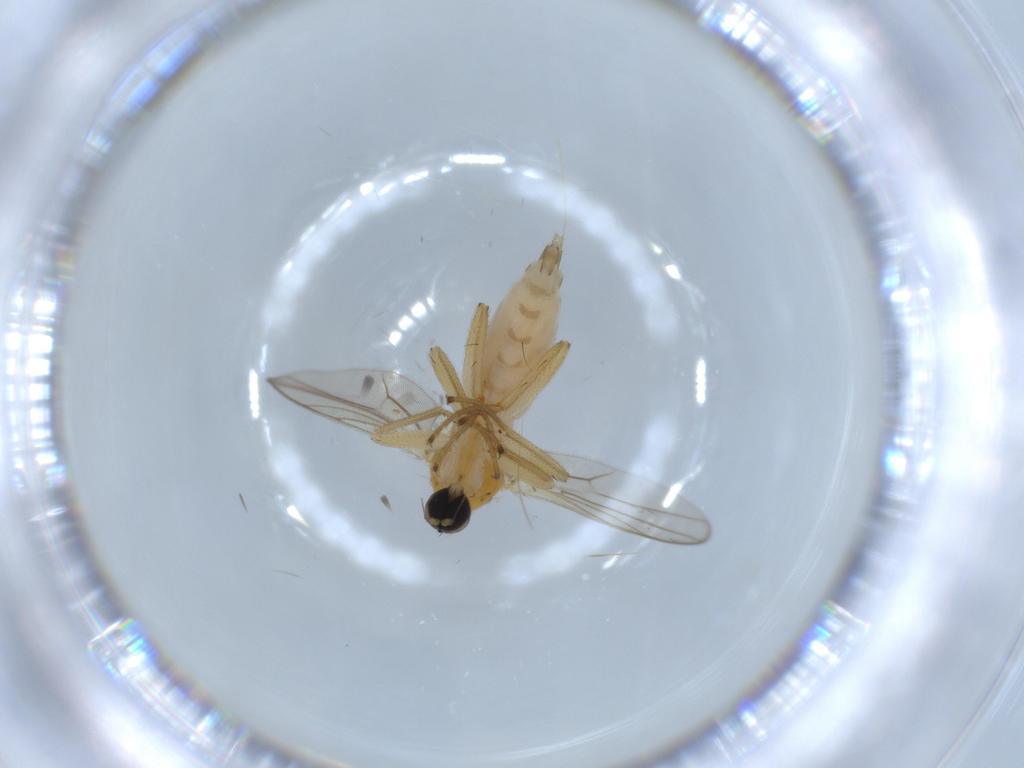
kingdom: Animalia
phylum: Arthropoda
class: Insecta
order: Diptera
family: Hybotidae
